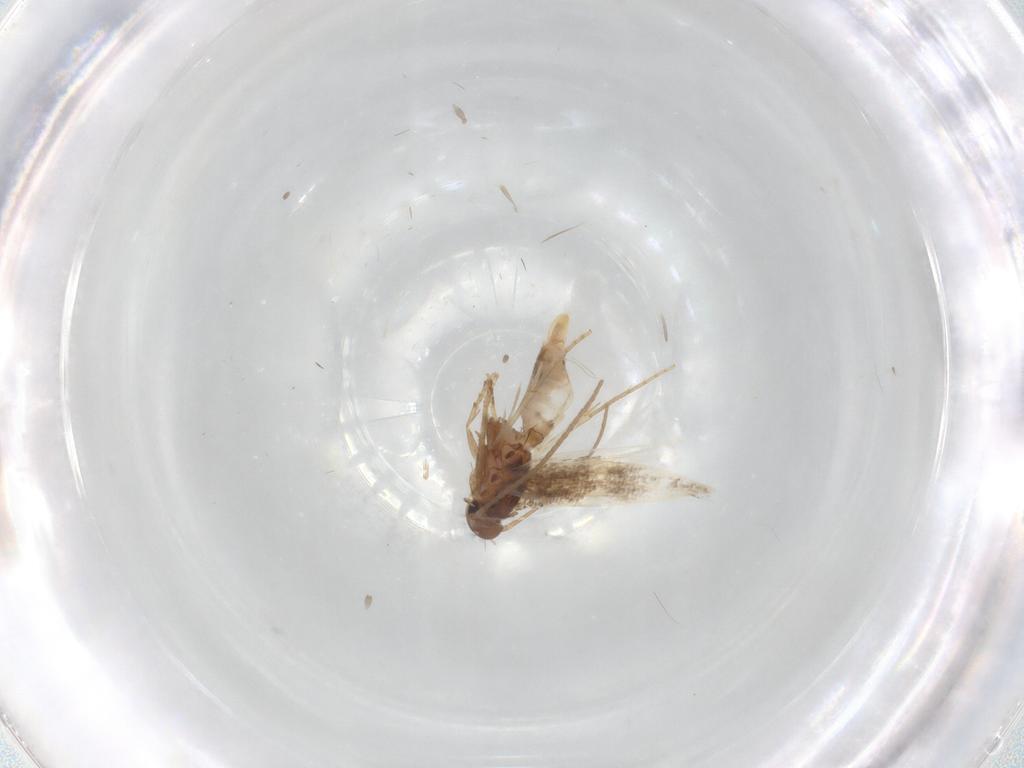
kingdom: Animalia
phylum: Arthropoda
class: Insecta
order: Lepidoptera
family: Elachistidae
